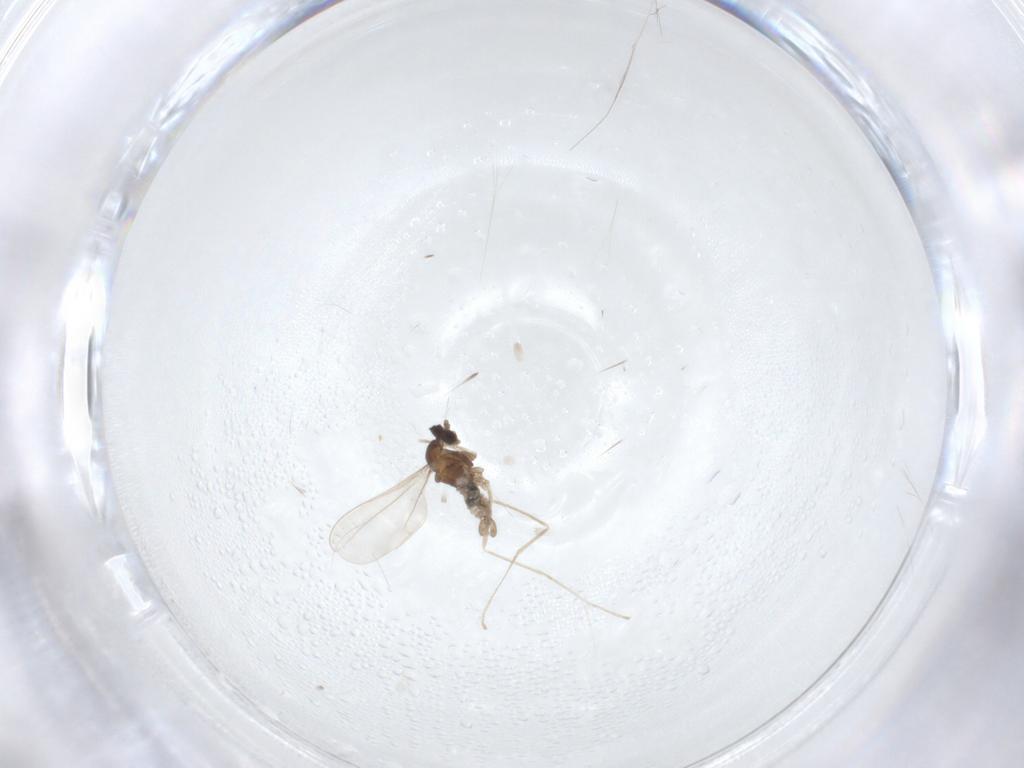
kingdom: Animalia
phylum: Arthropoda
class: Insecta
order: Diptera
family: Cecidomyiidae
